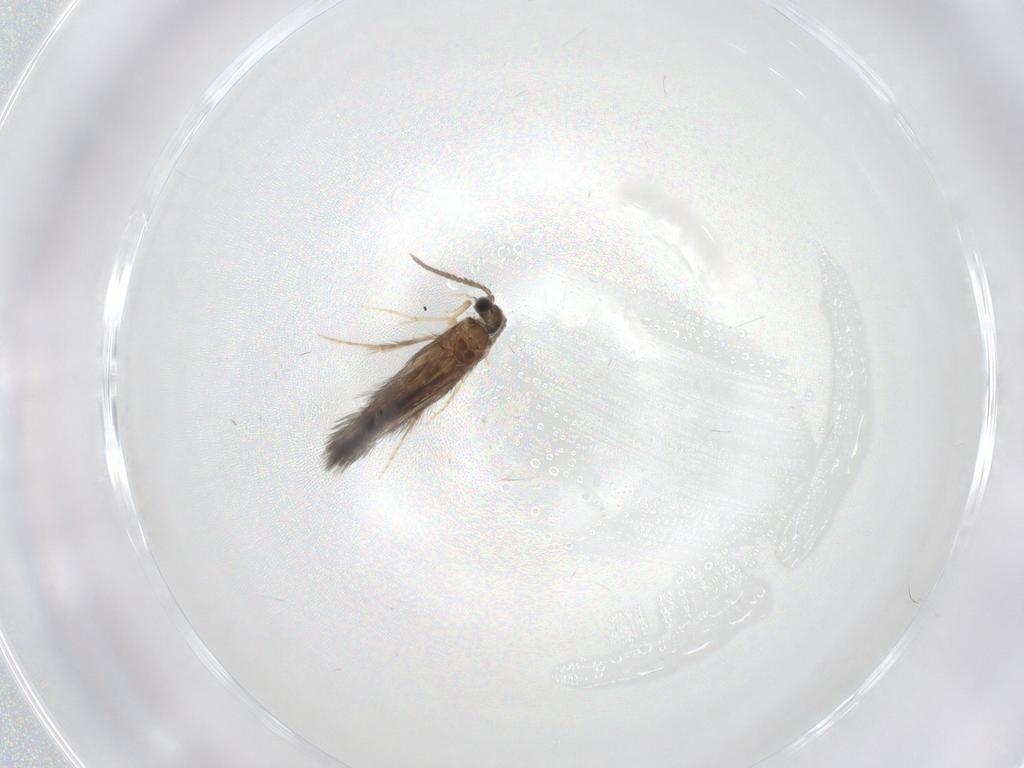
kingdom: Animalia
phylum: Arthropoda
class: Insecta
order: Trichoptera
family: Hydroptilidae
